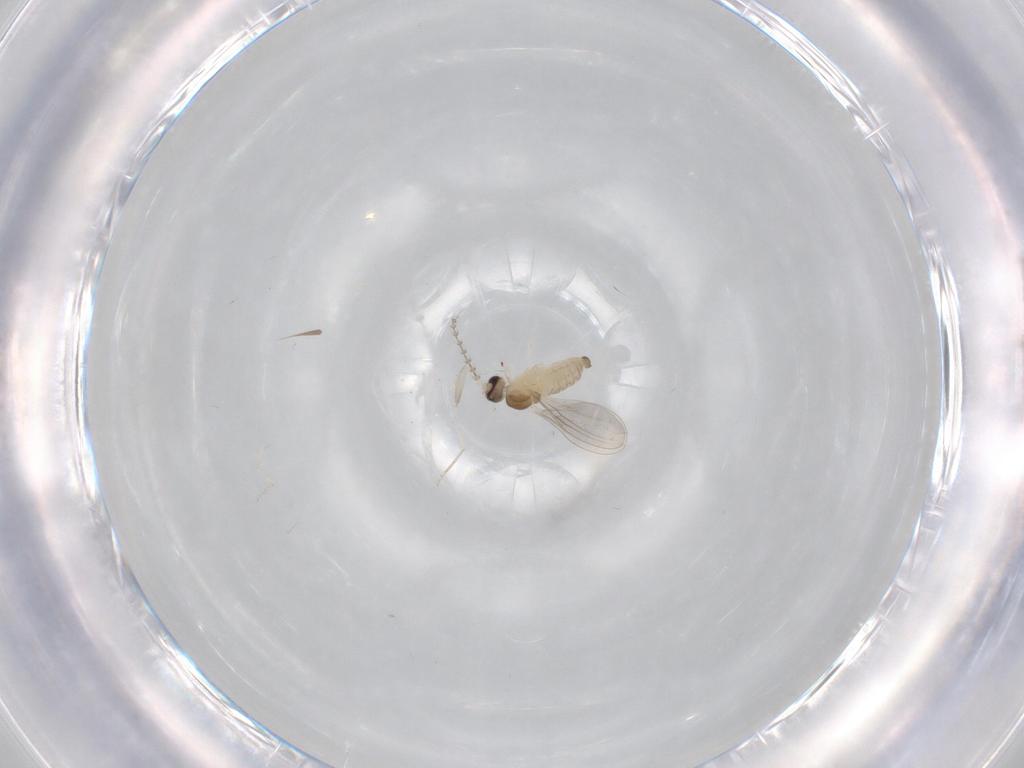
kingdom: Animalia
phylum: Arthropoda
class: Insecta
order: Diptera
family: Cecidomyiidae
